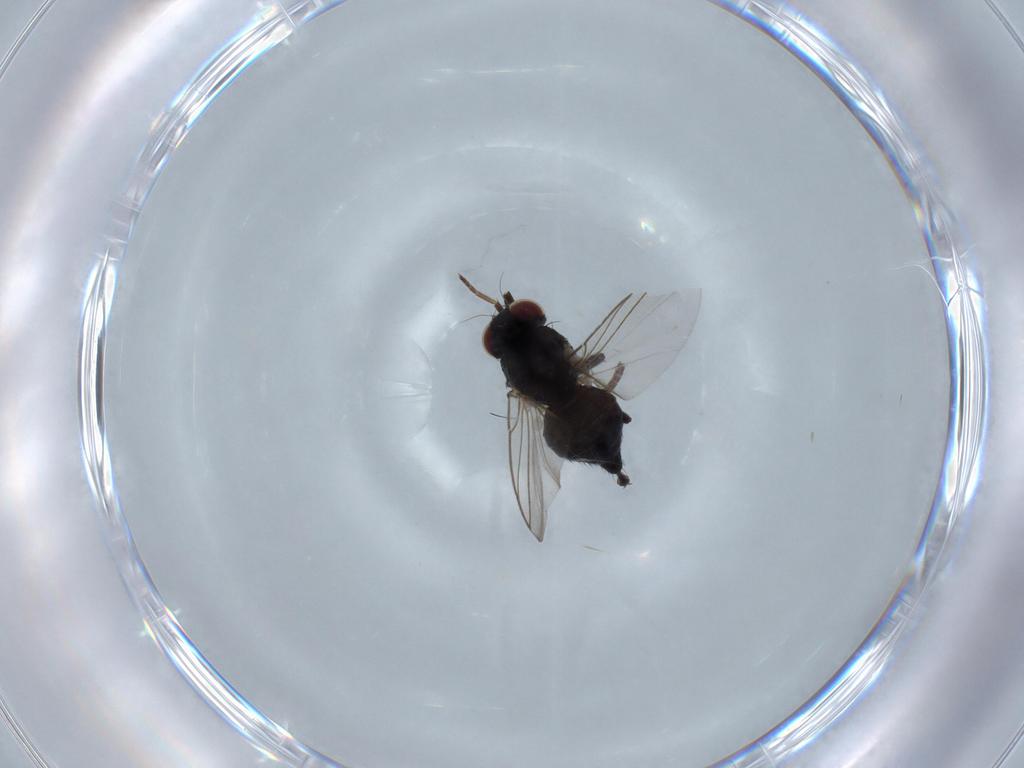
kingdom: Animalia
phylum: Arthropoda
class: Insecta
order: Diptera
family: Agromyzidae
